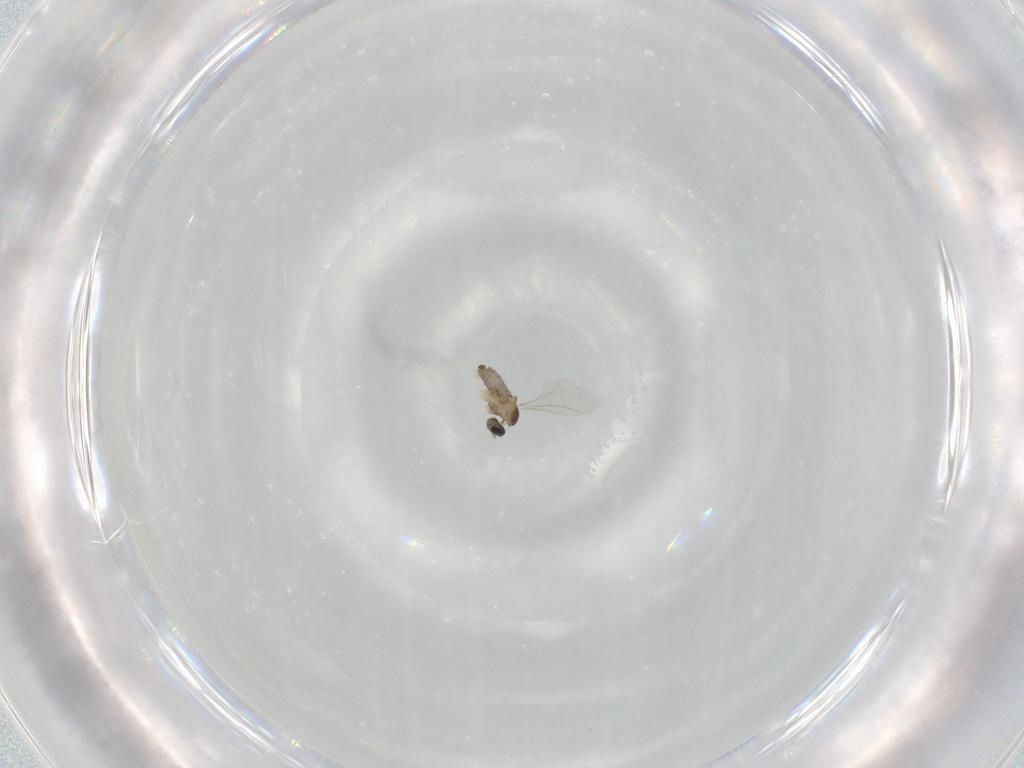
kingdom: Animalia
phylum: Arthropoda
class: Insecta
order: Diptera
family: Cecidomyiidae
